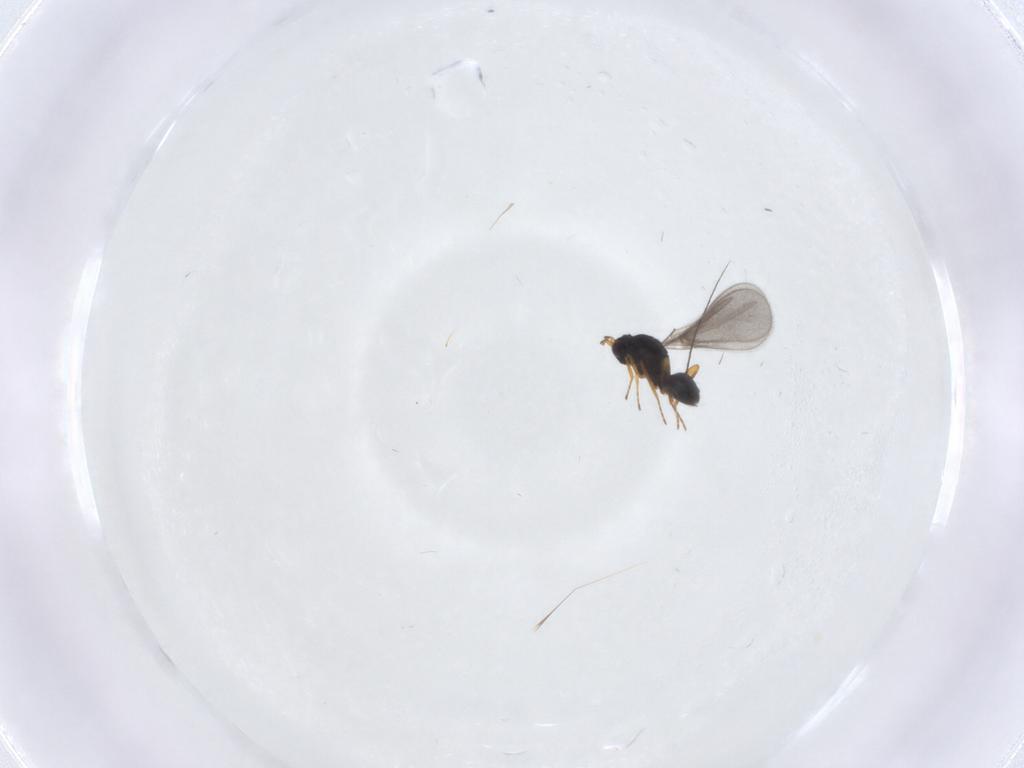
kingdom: Animalia
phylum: Arthropoda
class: Insecta
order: Hymenoptera
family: Mymaridae
